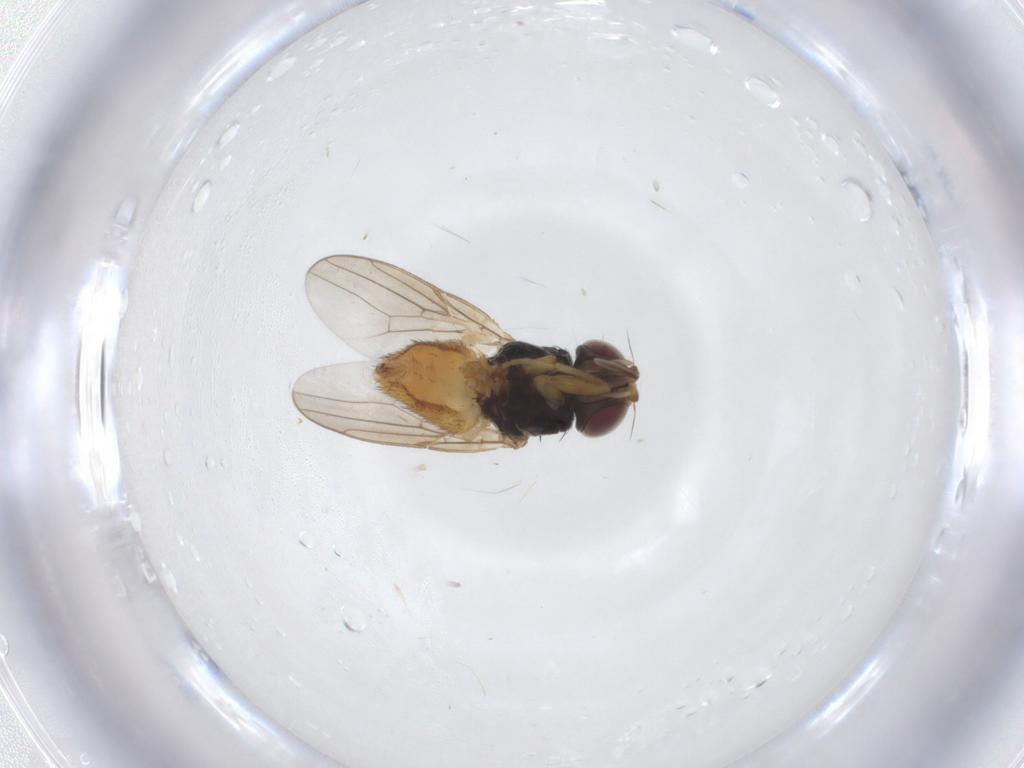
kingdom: Animalia
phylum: Arthropoda
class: Insecta
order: Diptera
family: Chloropidae
